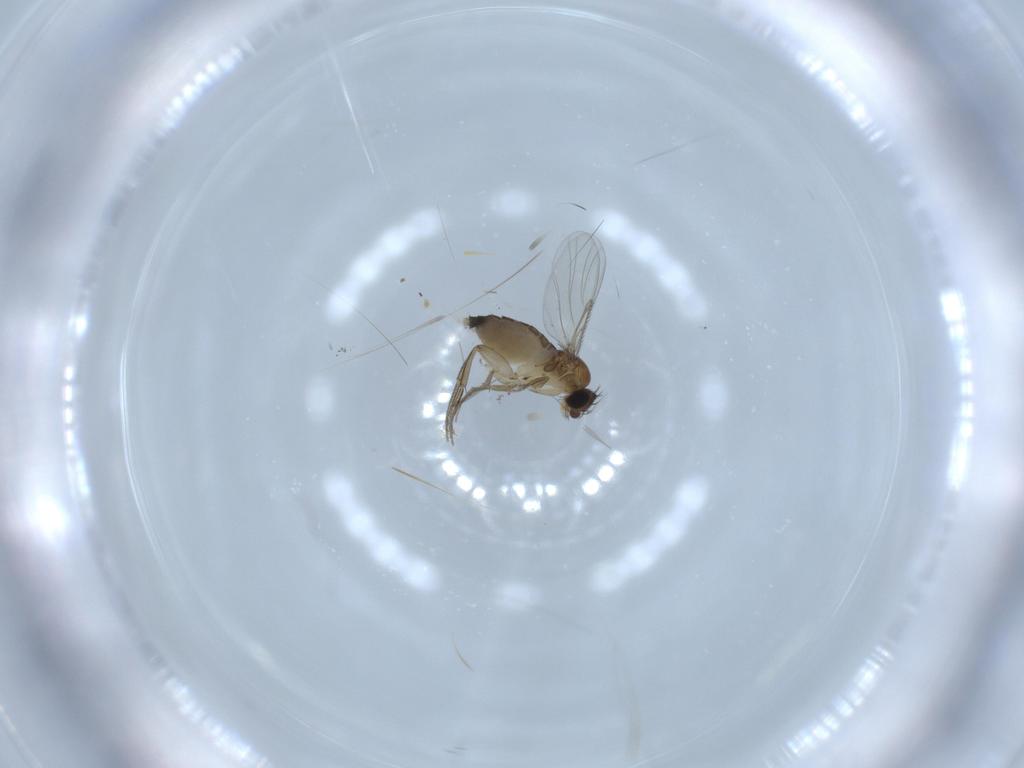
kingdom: Animalia
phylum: Arthropoda
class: Insecta
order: Diptera
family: Phoridae
